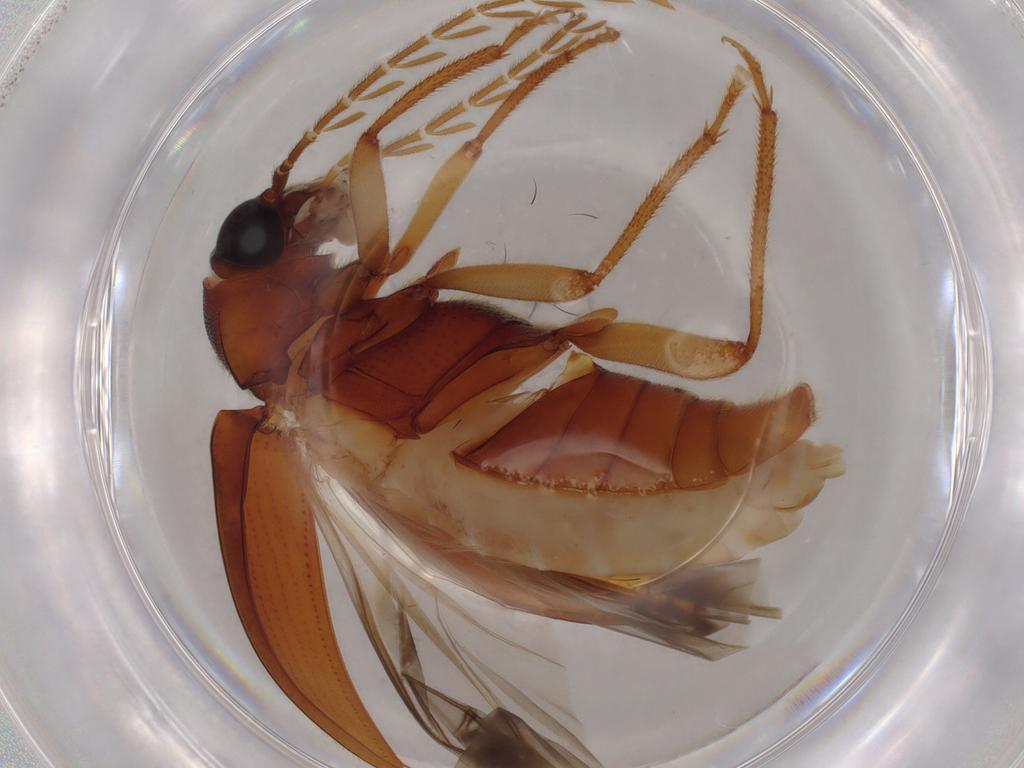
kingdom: Animalia
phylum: Arthropoda
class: Insecta
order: Coleoptera
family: Ptilodactylidae
